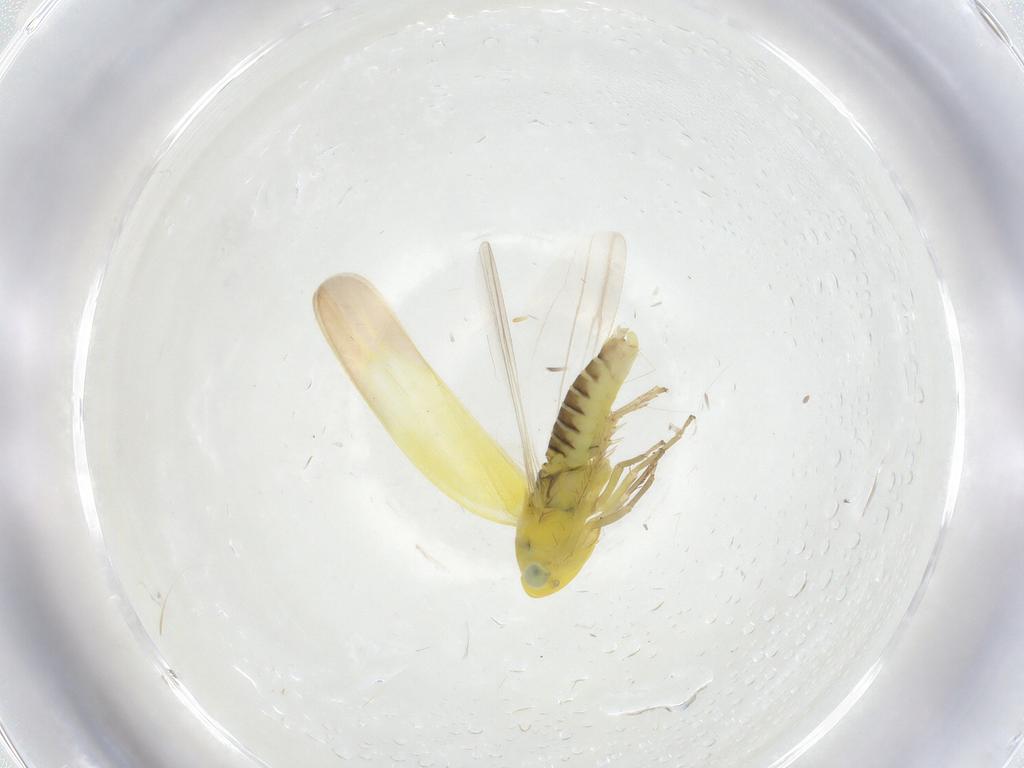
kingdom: Animalia
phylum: Arthropoda
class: Insecta
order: Hemiptera
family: Cicadellidae
